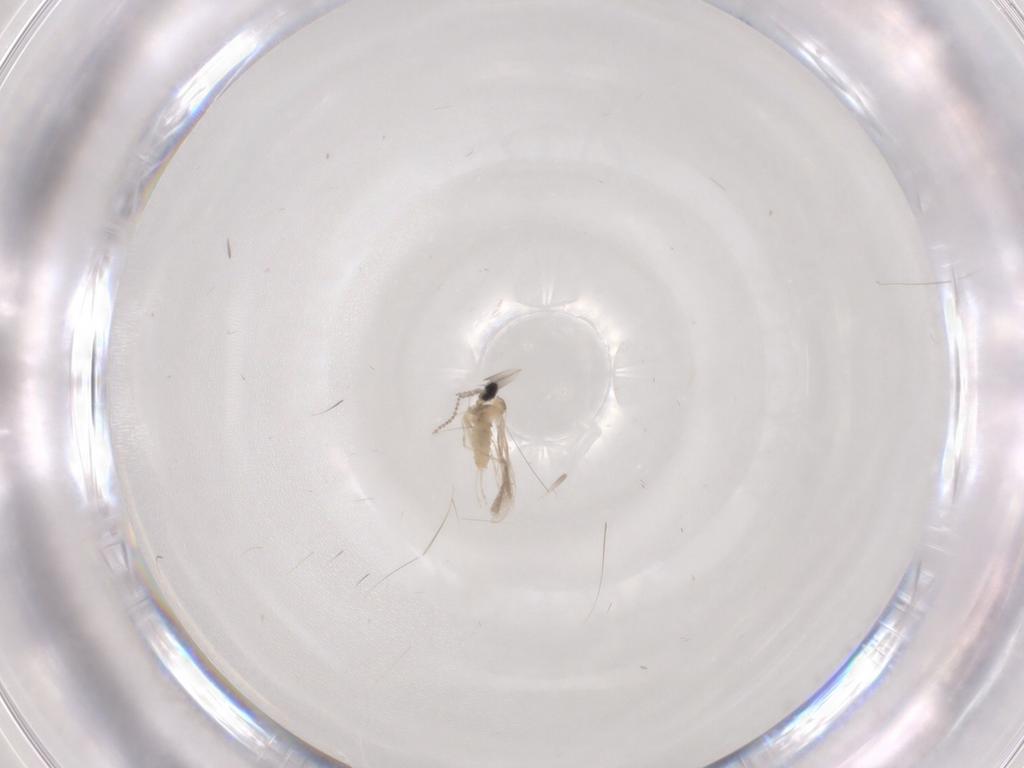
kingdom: Animalia
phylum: Arthropoda
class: Insecta
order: Diptera
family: Cecidomyiidae
